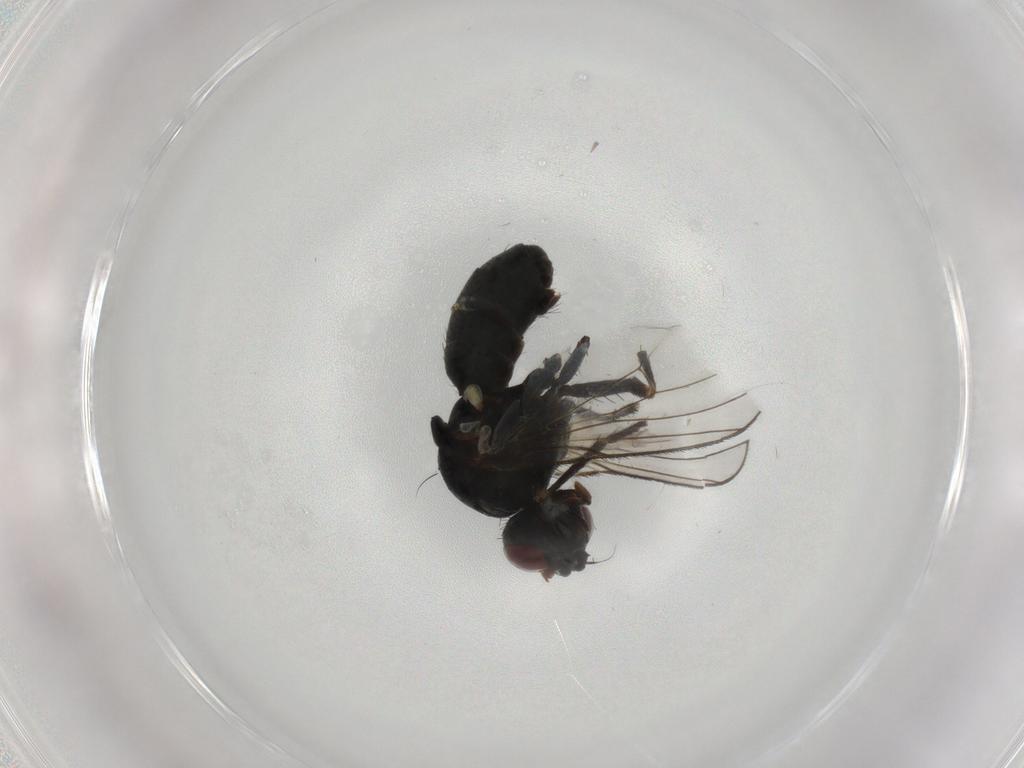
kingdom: Animalia
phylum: Arthropoda
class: Insecta
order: Diptera
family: Muscidae
